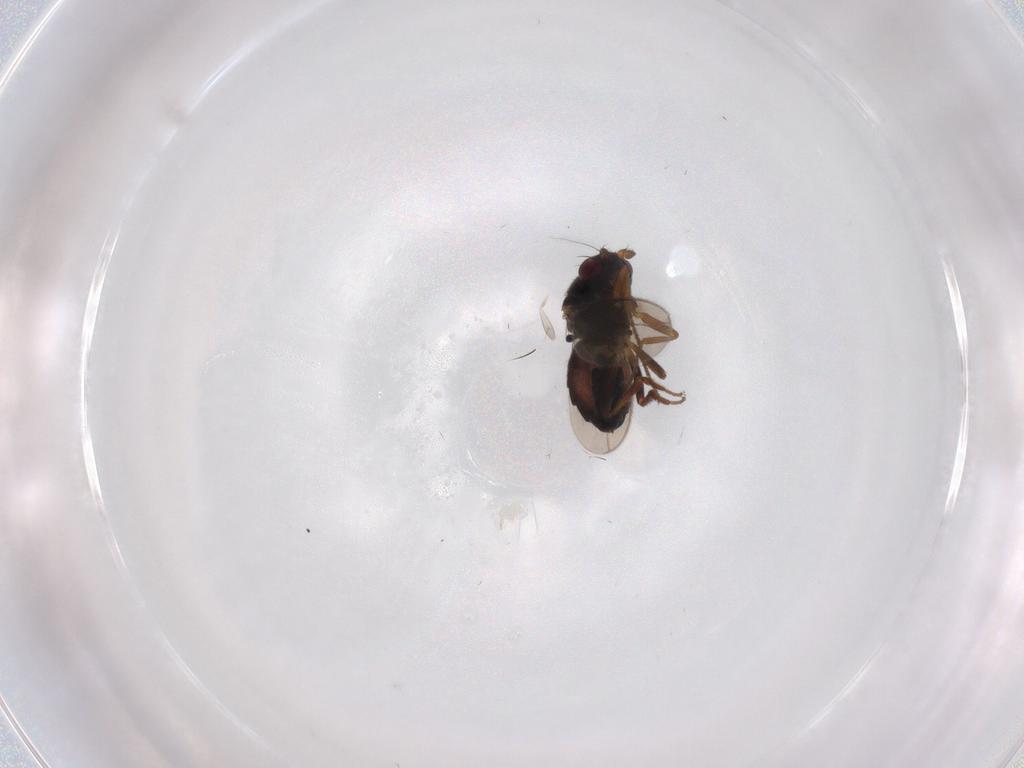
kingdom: Animalia
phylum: Arthropoda
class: Insecta
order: Diptera
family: Sphaeroceridae
